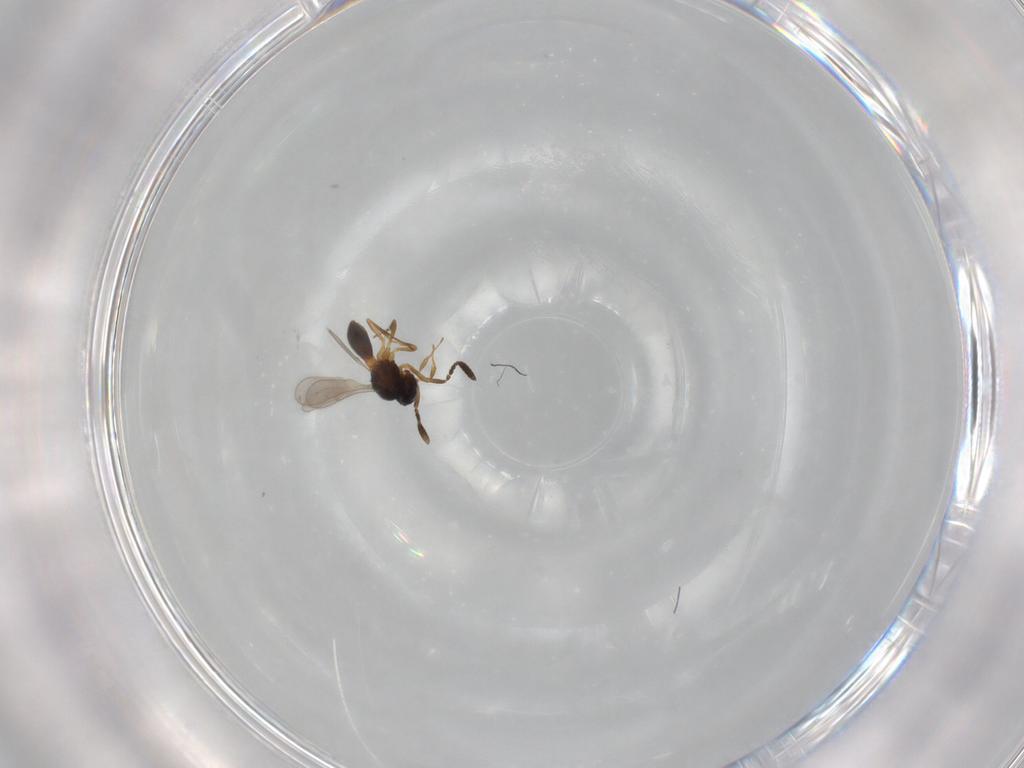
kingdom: Animalia
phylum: Arthropoda
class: Insecta
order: Hymenoptera
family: Scelionidae
